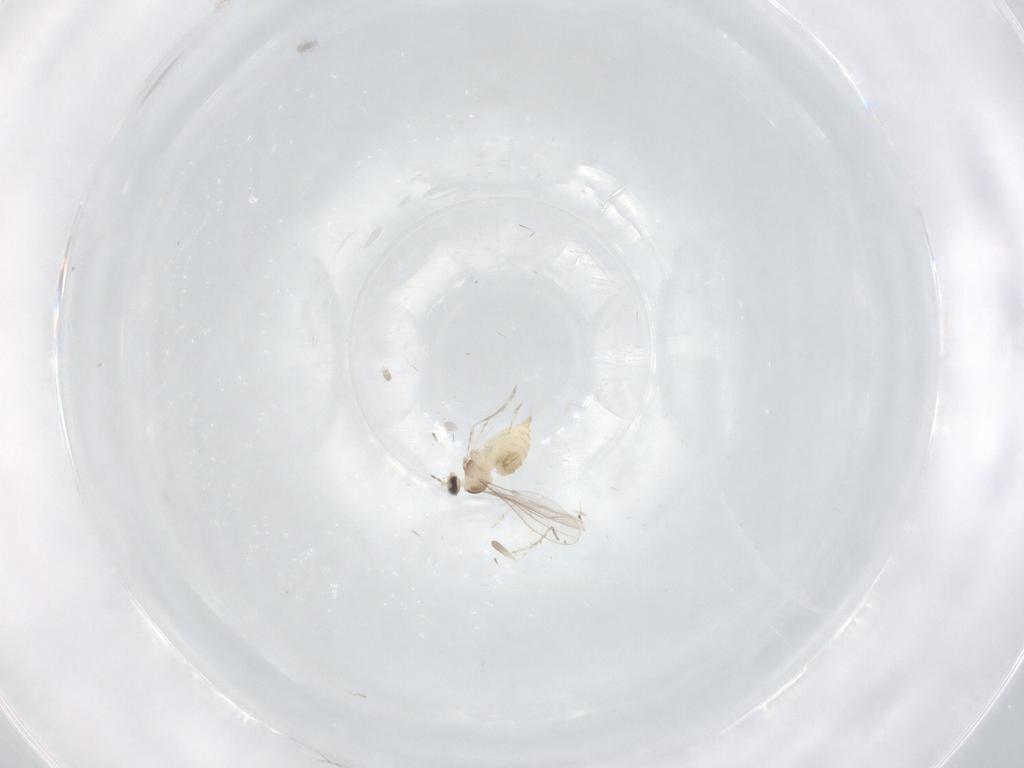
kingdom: Animalia
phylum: Arthropoda
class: Insecta
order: Diptera
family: Cecidomyiidae
